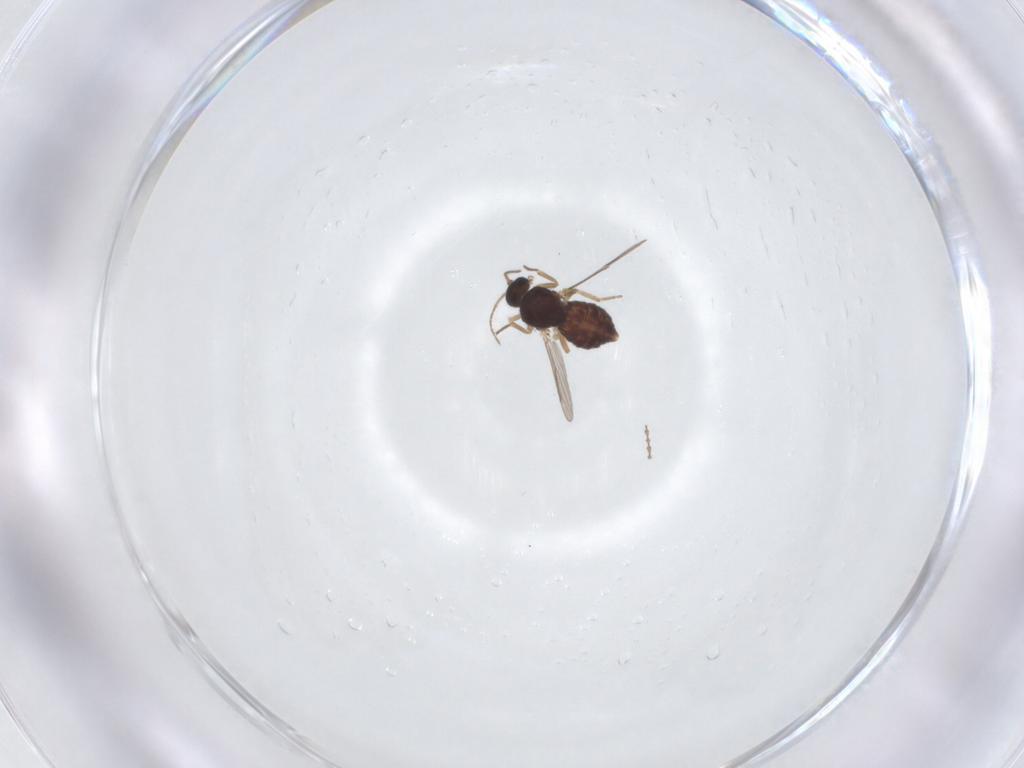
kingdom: Animalia
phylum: Arthropoda
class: Insecta
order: Diptera
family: Ceratopogonidae
